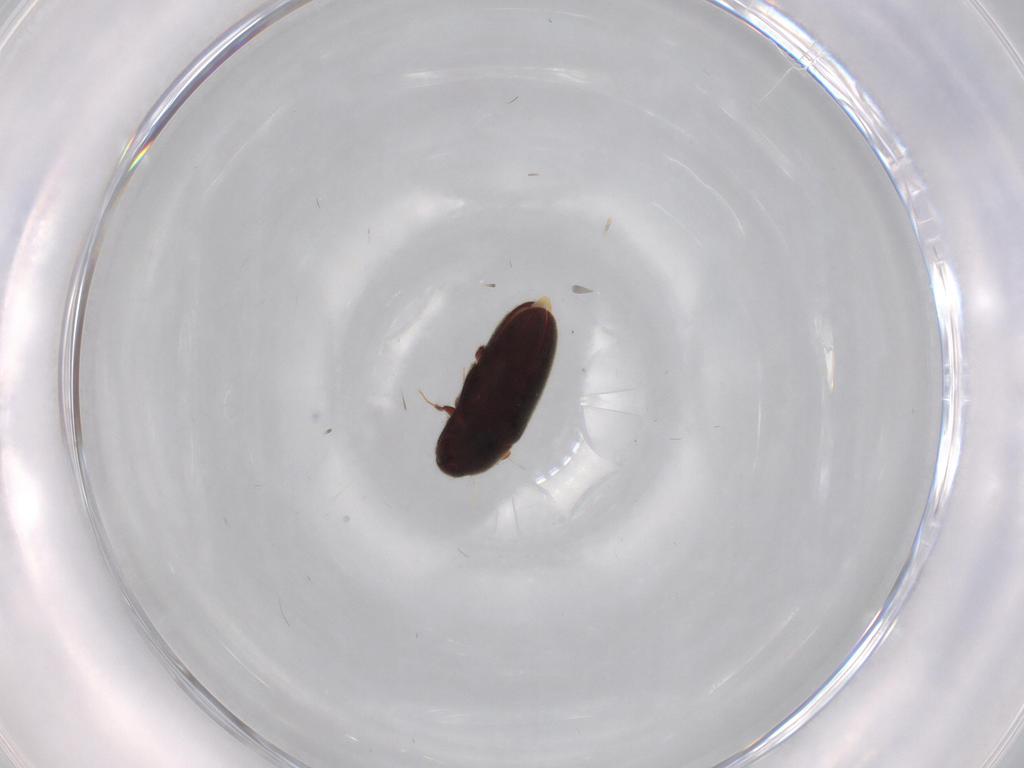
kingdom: Animalia
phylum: Arthropoda
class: Insecta
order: Coleoptera
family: Throscidae
